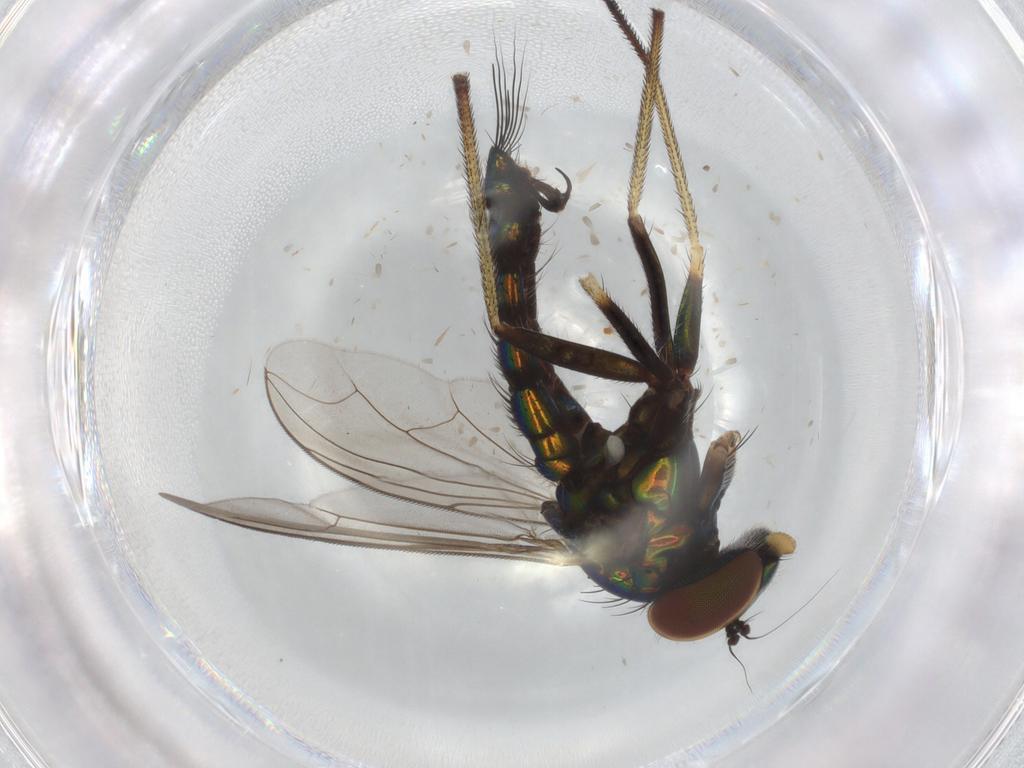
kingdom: Animalia
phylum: Arthropoda
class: Insecta
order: Diptera
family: Dolichopodidae
